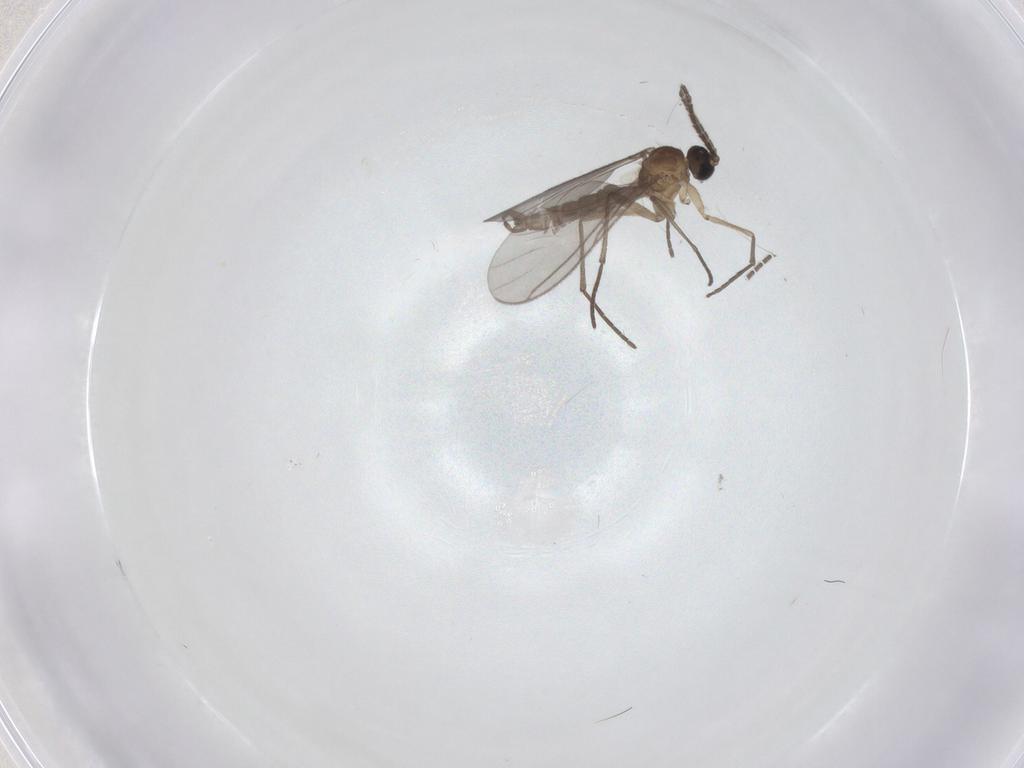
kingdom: Animalia
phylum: Arthropoda
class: Insecta
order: Diptera
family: Sciaridae
